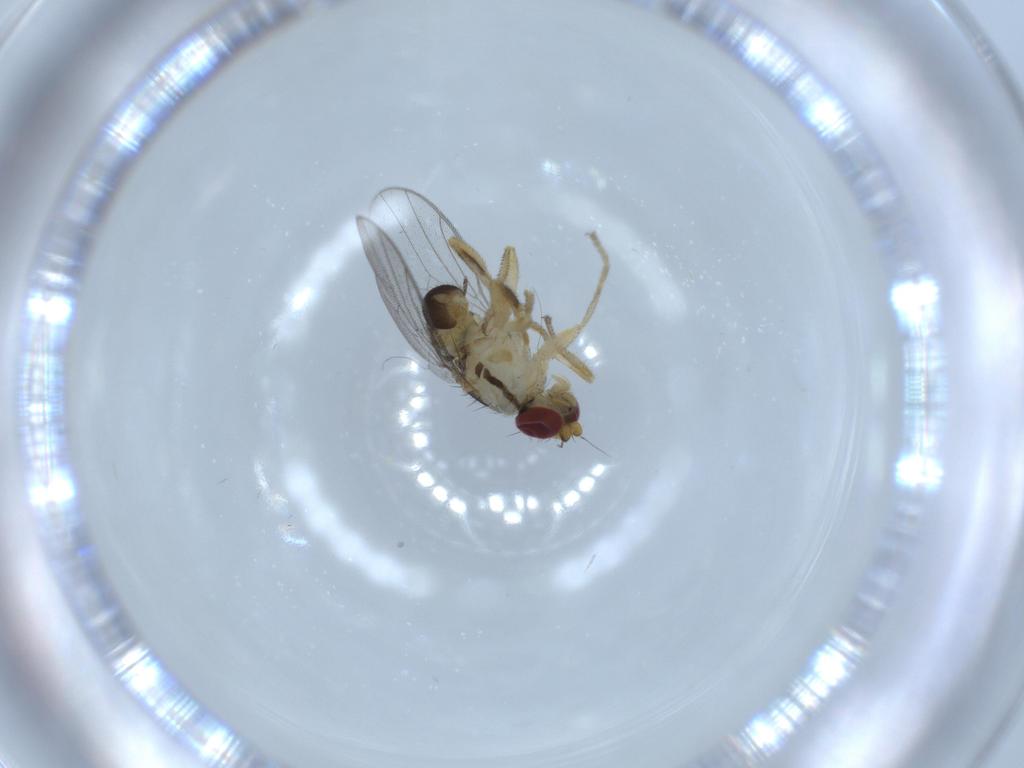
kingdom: Animalia
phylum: Arthropoda
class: Insecta
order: Diptera
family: Chloropidae
